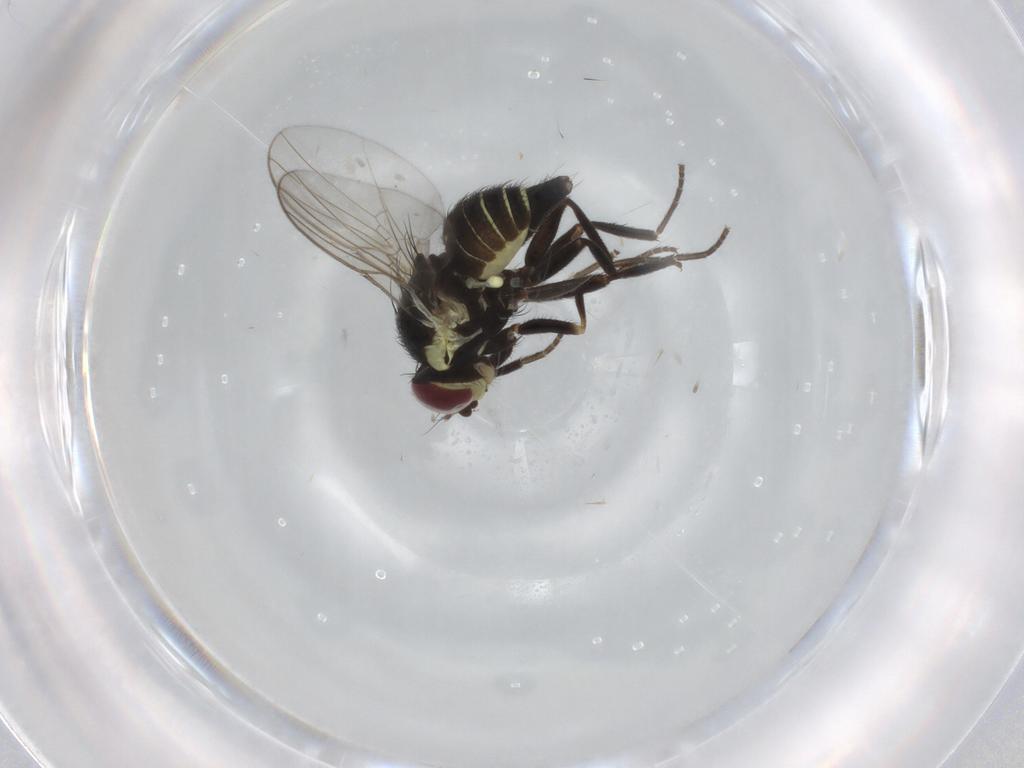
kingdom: Animalia
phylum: Arthropoda
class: Insecta
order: Diptera
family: Agromyzidae
